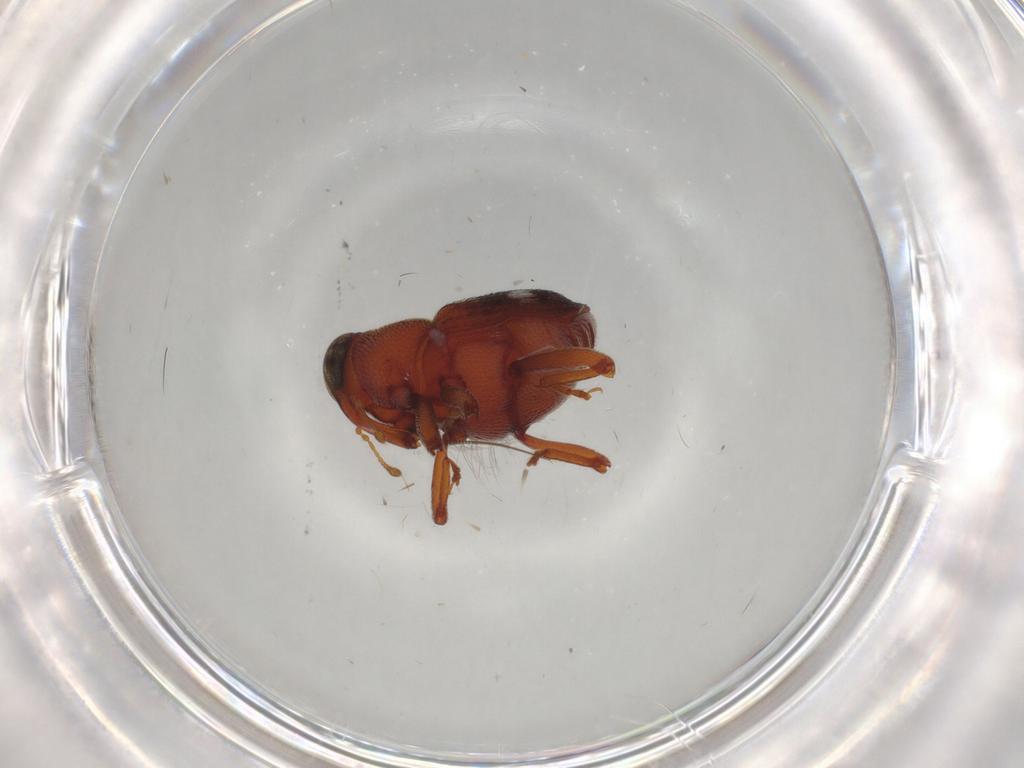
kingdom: Animalia
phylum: Arthropoda
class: Insecta
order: Coleoptera
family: Curculionidae
